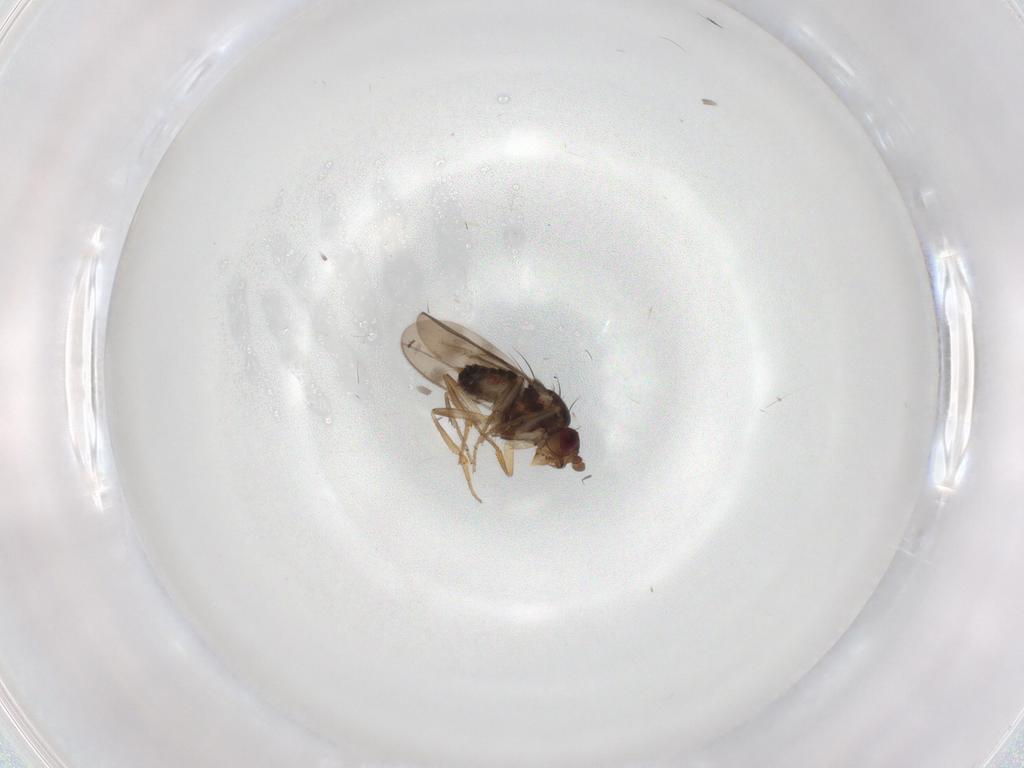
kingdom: Animalia
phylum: Arthropoda
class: Insecta
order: Diptera
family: Sphaeroceridae
